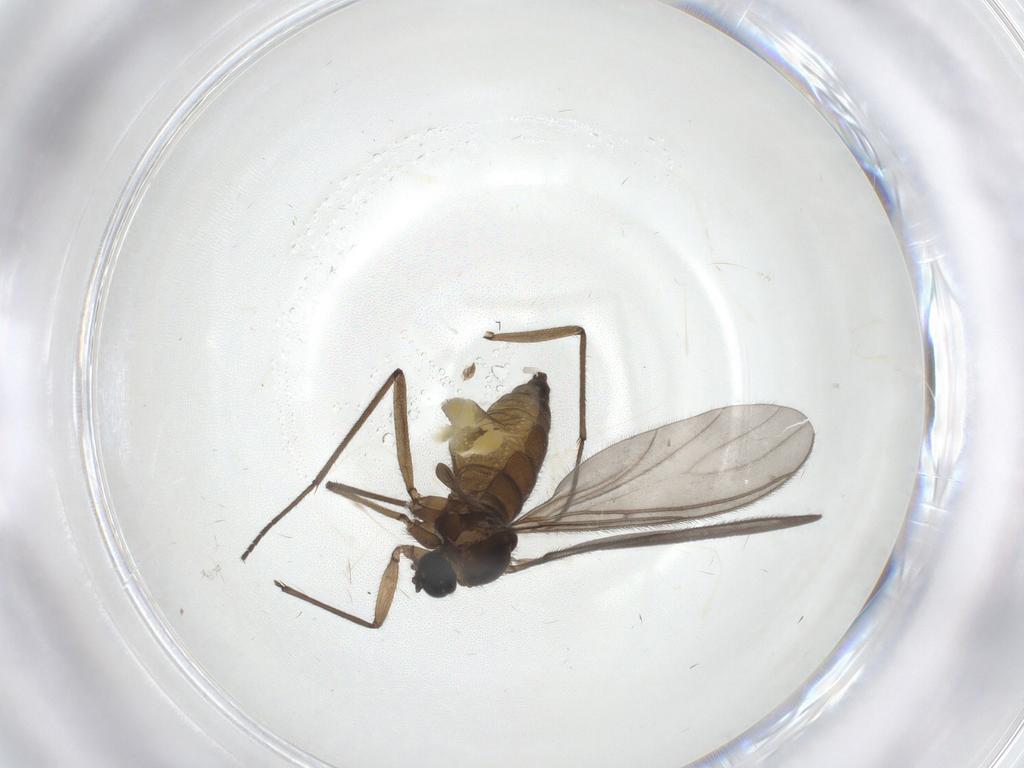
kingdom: Animalia
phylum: Arthropoda
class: Insecta
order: Diptera
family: Sciaridae
